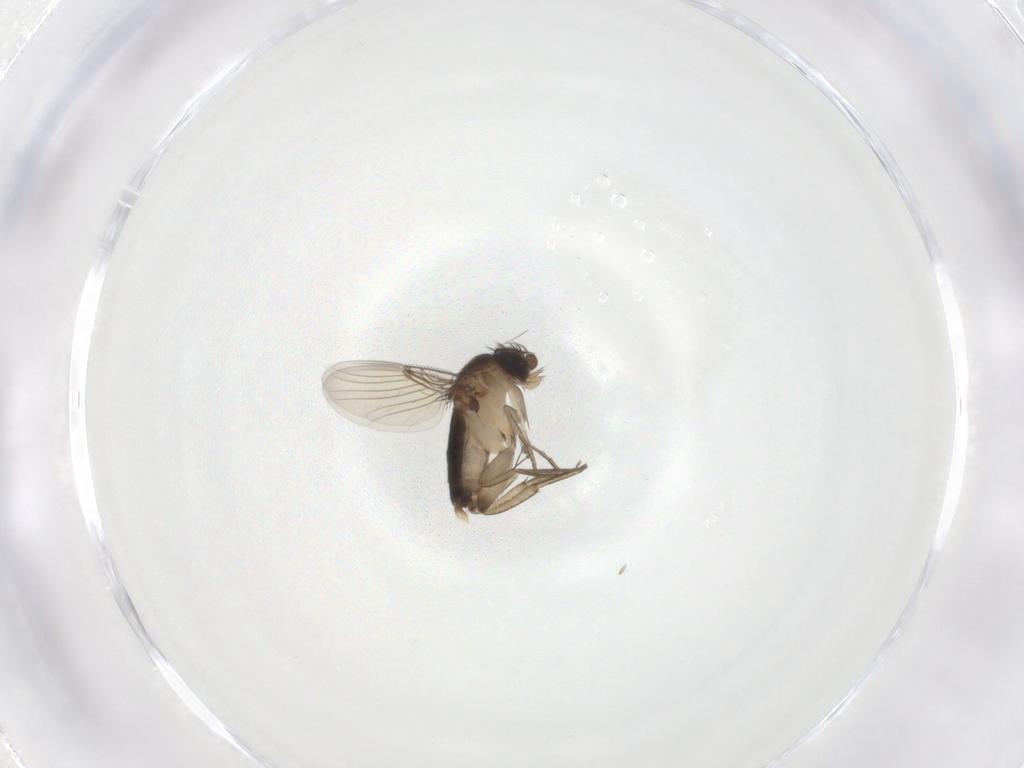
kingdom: Animalia
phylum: Arthropoda
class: Insecta
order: Diptera
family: Phoridae
